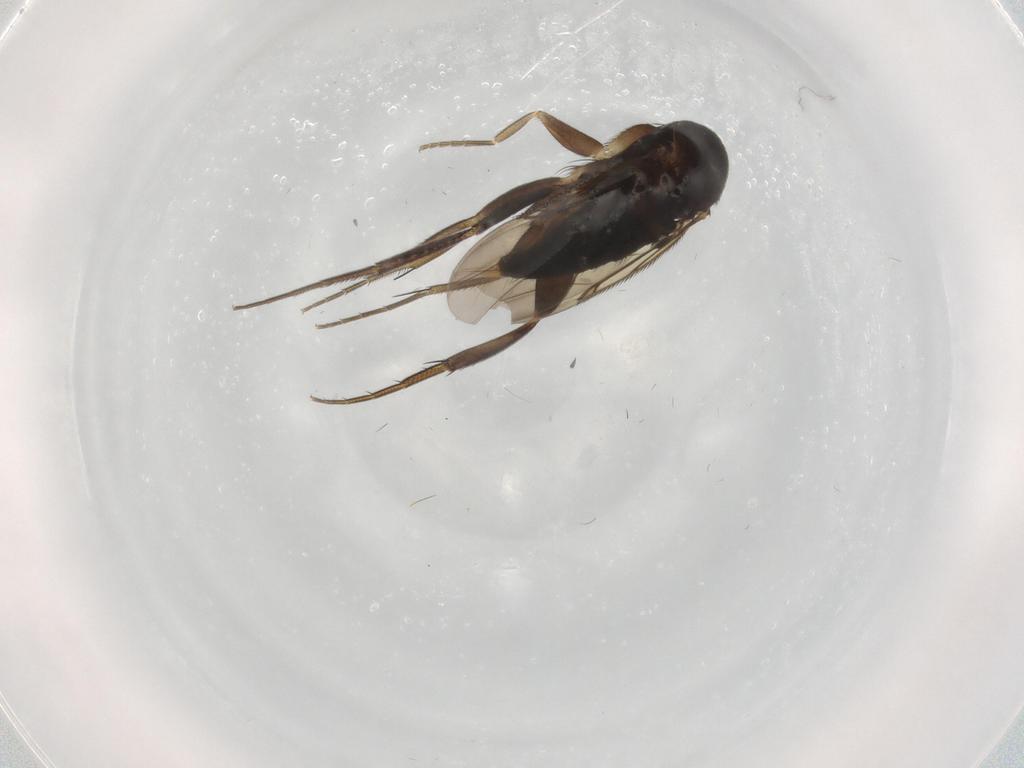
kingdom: Animalia
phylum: Arthropoda
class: Insecta
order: Diptera
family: Phoridae
